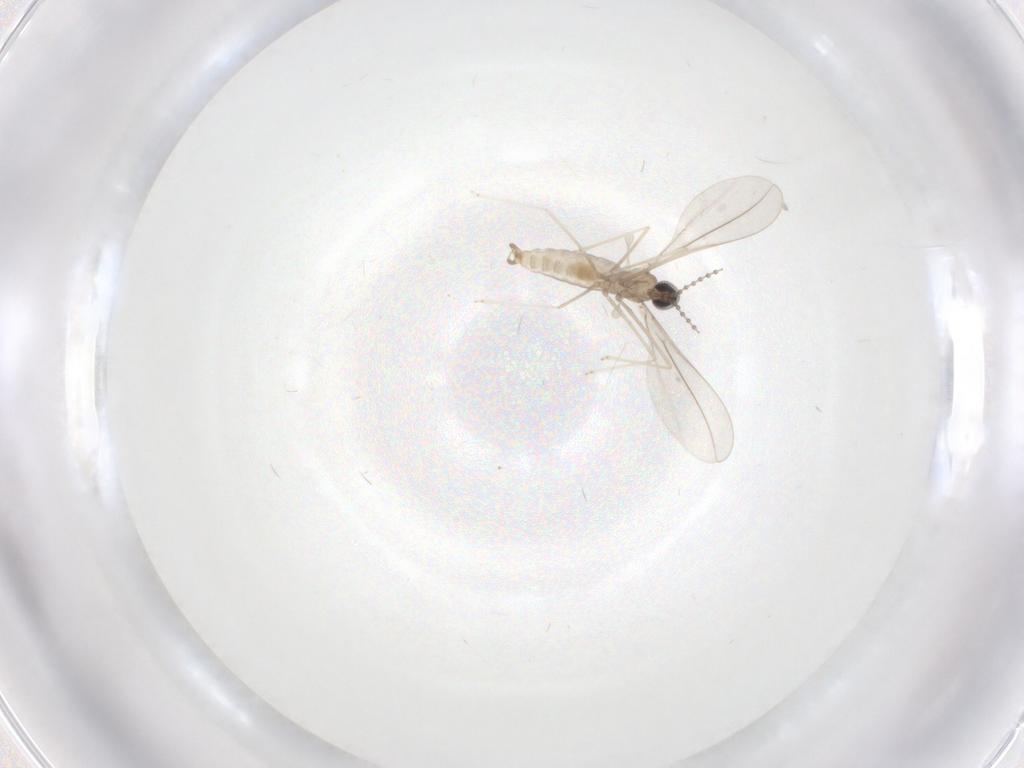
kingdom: Animalia
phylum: Arthropoda
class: Insecta
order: Diptera
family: Cecidomyiidae
